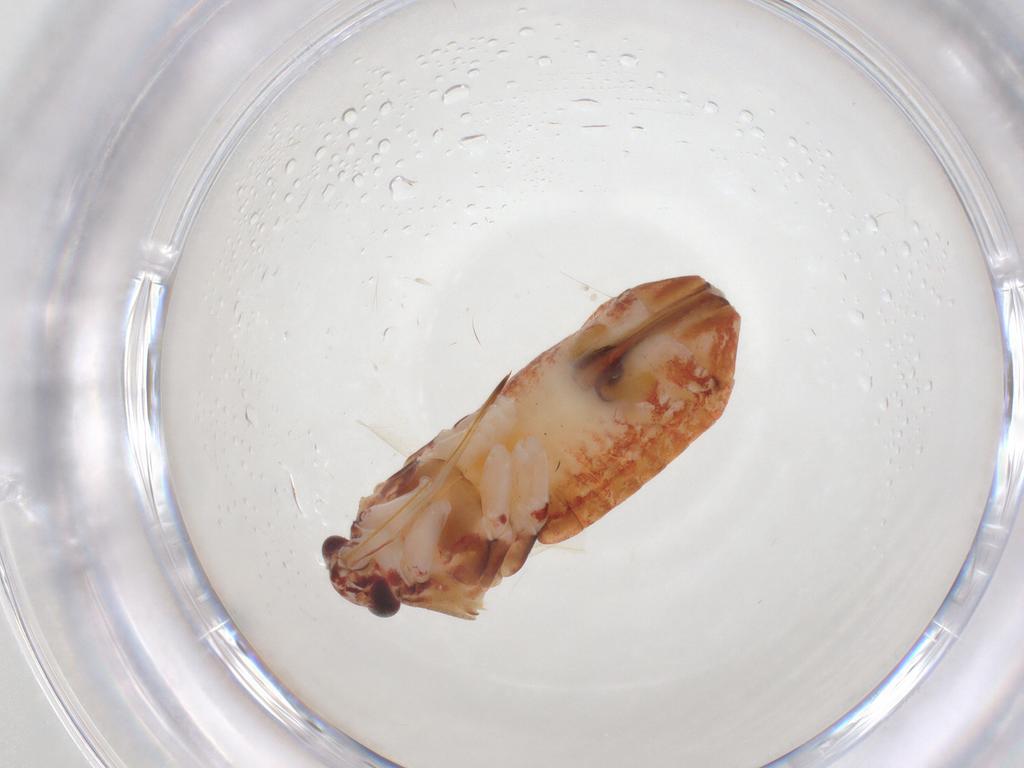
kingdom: Animalia
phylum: Arthropoda
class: Insecta
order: Hemiptera
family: Miridae
